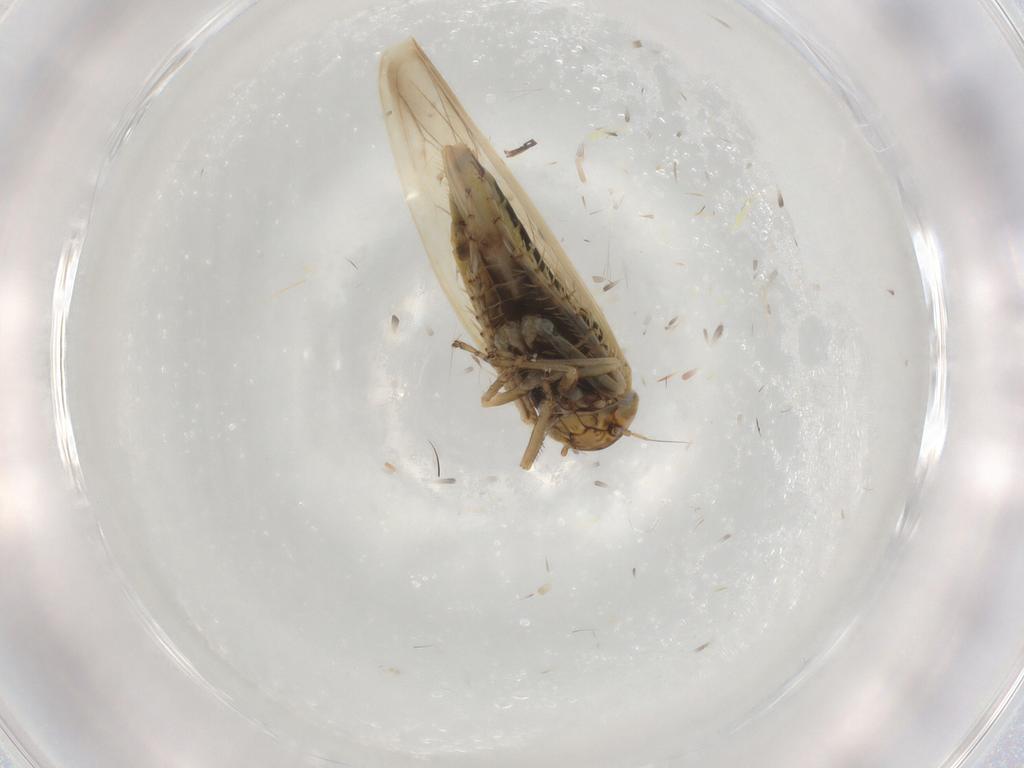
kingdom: Animalia
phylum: Arthropoda
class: Insecta
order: Hemiptera
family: Cicadellidae
